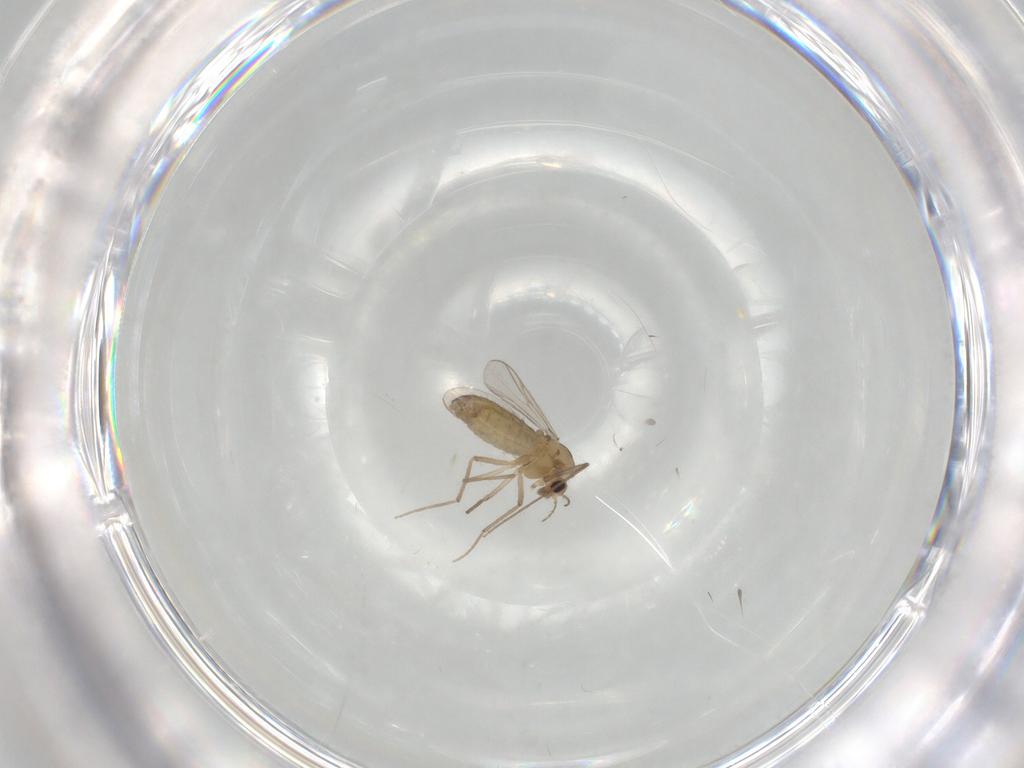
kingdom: Animalia
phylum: Arthropoda
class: Insecta
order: Diptera
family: Chironomidae
